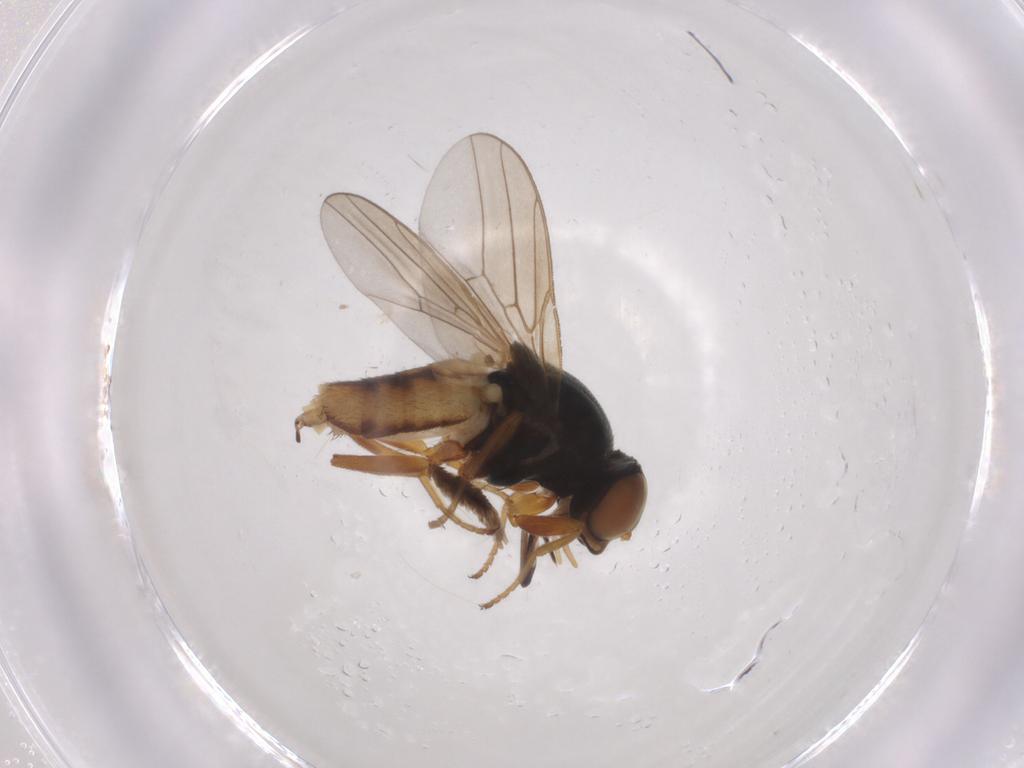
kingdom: Animalia
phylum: Arthropoda
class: Insecta
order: Diptera
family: Chloropidae
